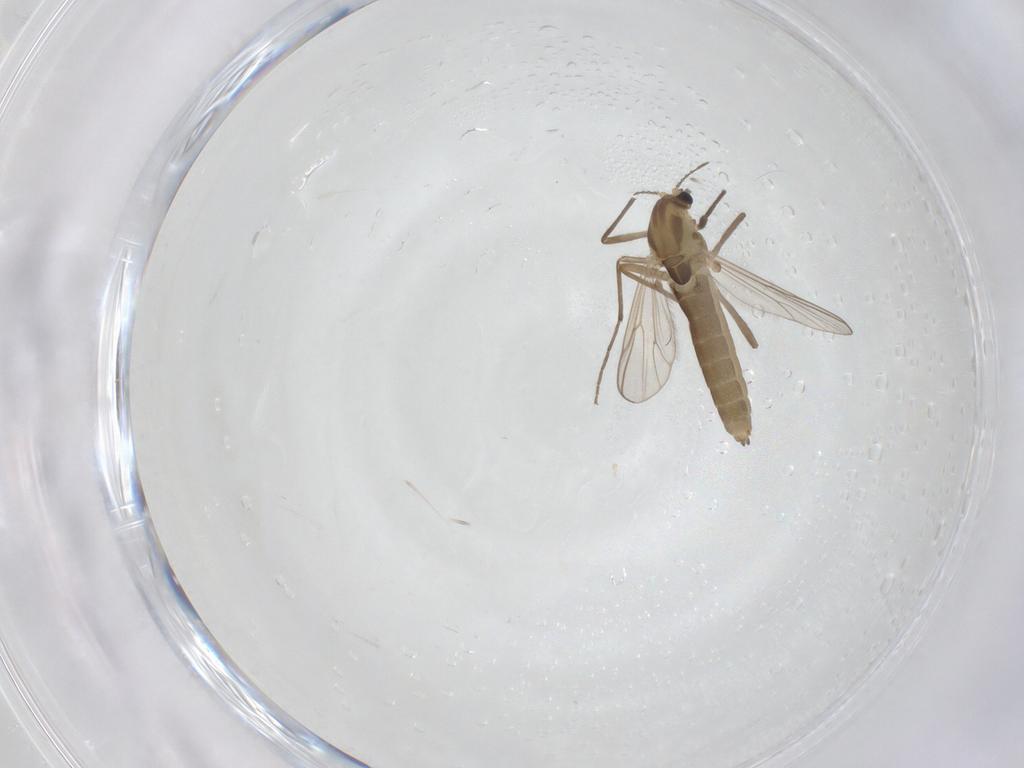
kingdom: Animalia
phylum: Arthropoda
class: Insecta
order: Diptera
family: Chironomidae
